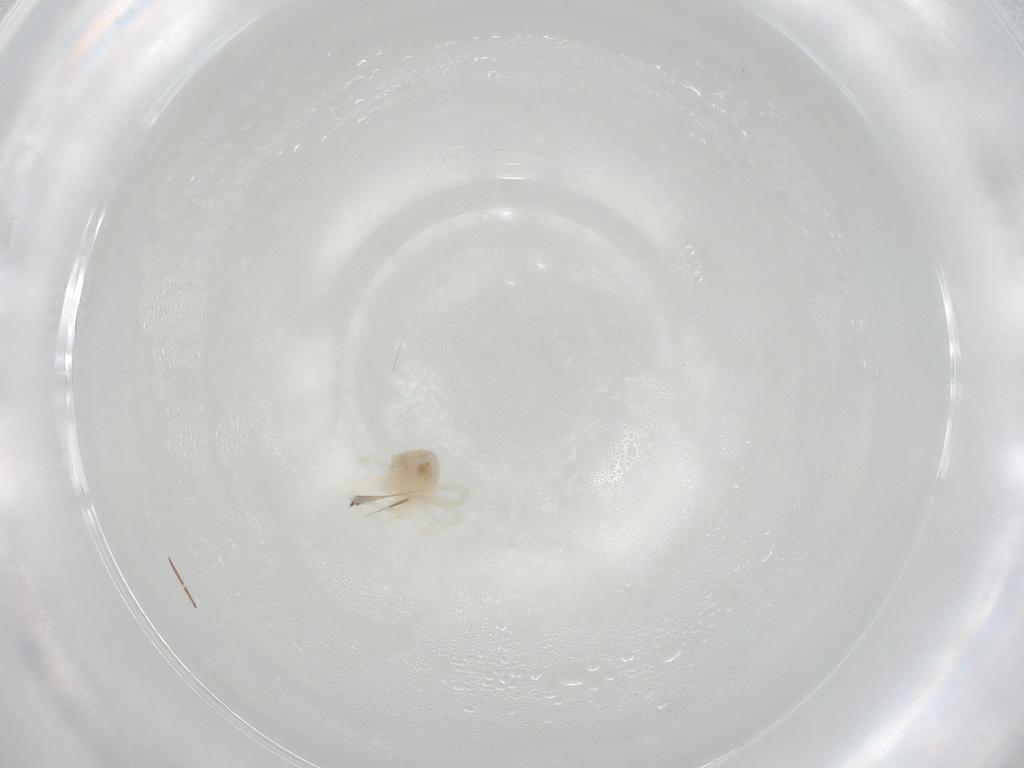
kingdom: Animalia
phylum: Arthropoda
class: Arachnida
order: Trombidiformes
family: Anystidae
